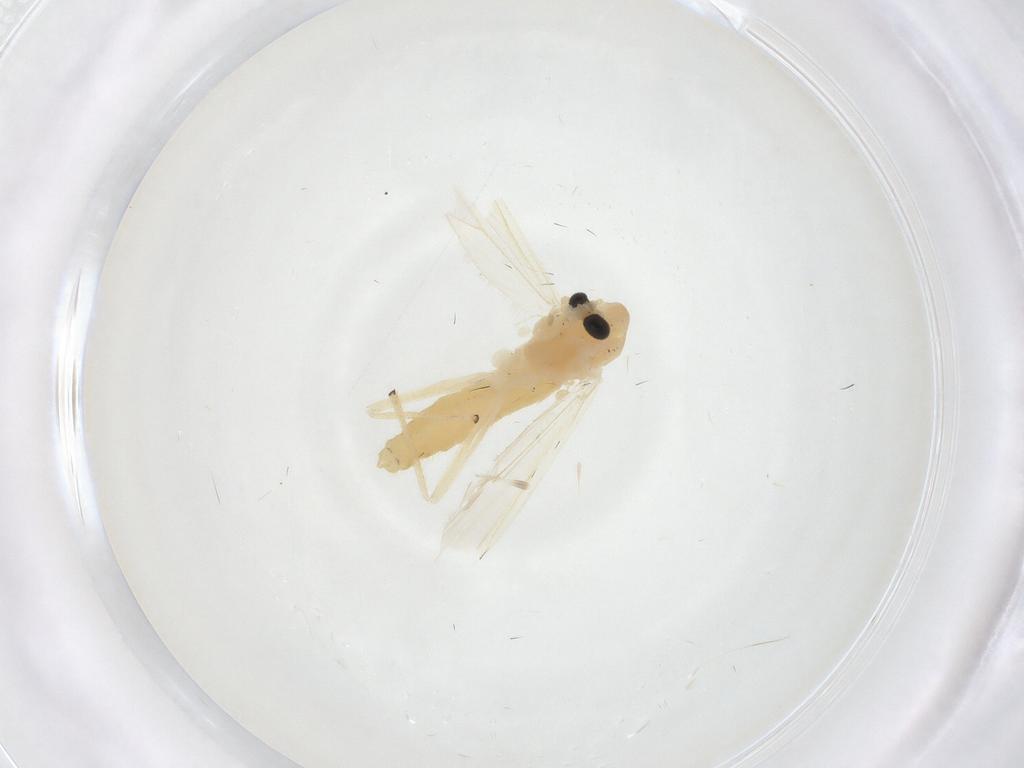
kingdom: Animalia
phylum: Arthropoda
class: Insecta
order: Diptera
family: Chironomidae
